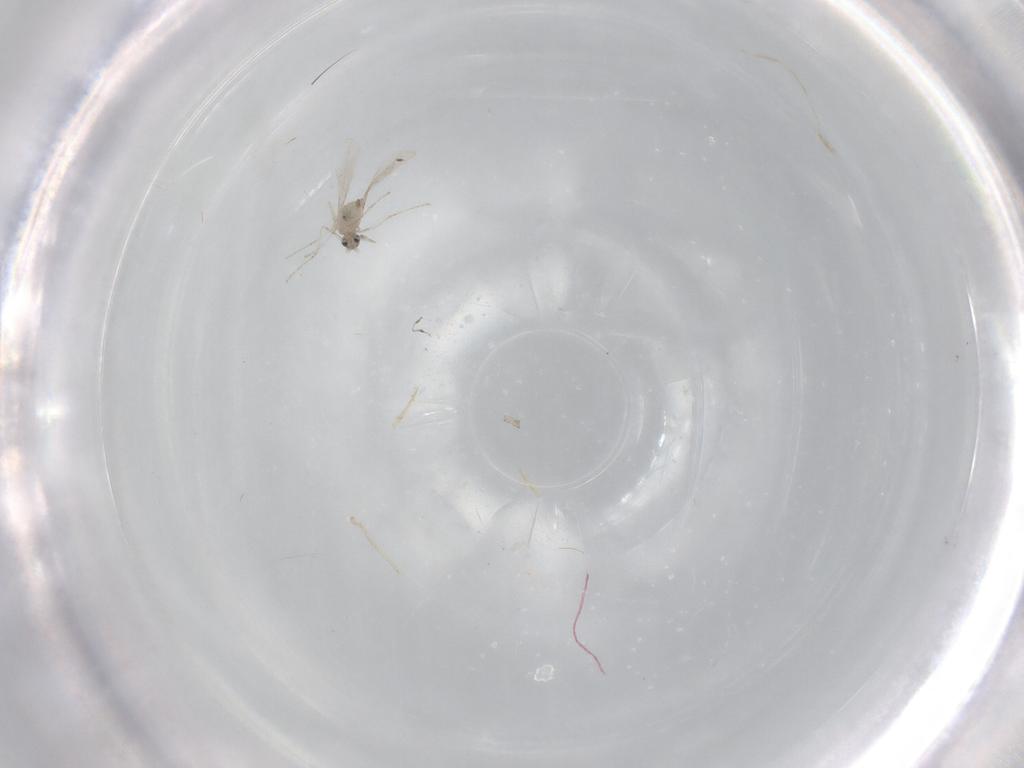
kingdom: Animalia
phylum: Arthropoda
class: Insecta
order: Diptera
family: Cecidomyiidae
